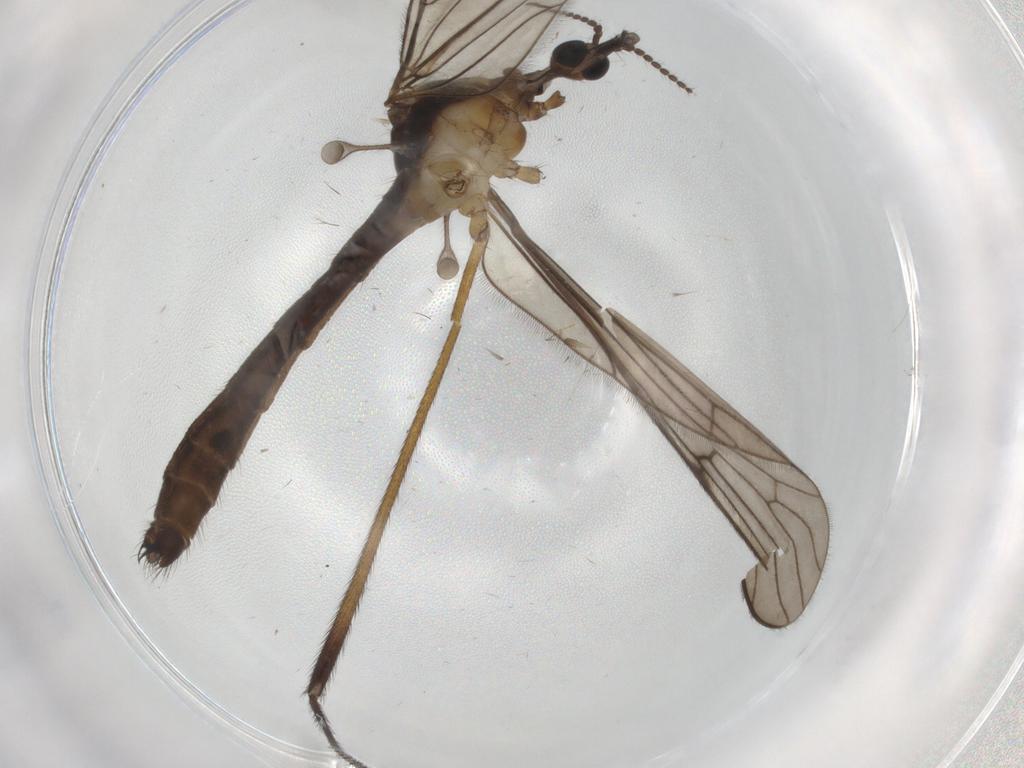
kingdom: Animalia
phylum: Arthropoda
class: Insecta
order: Diptera
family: Limoniidae
